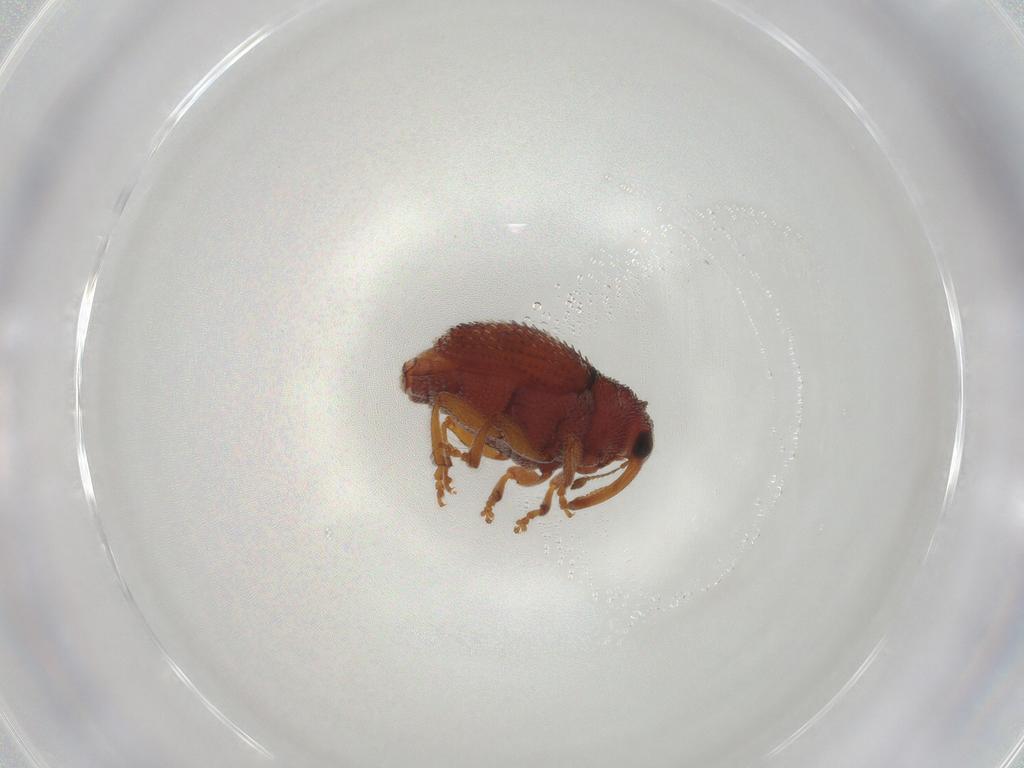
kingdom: Animalia
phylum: Arthropoda
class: Insecta
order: Coleoptera
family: Curculionidae
